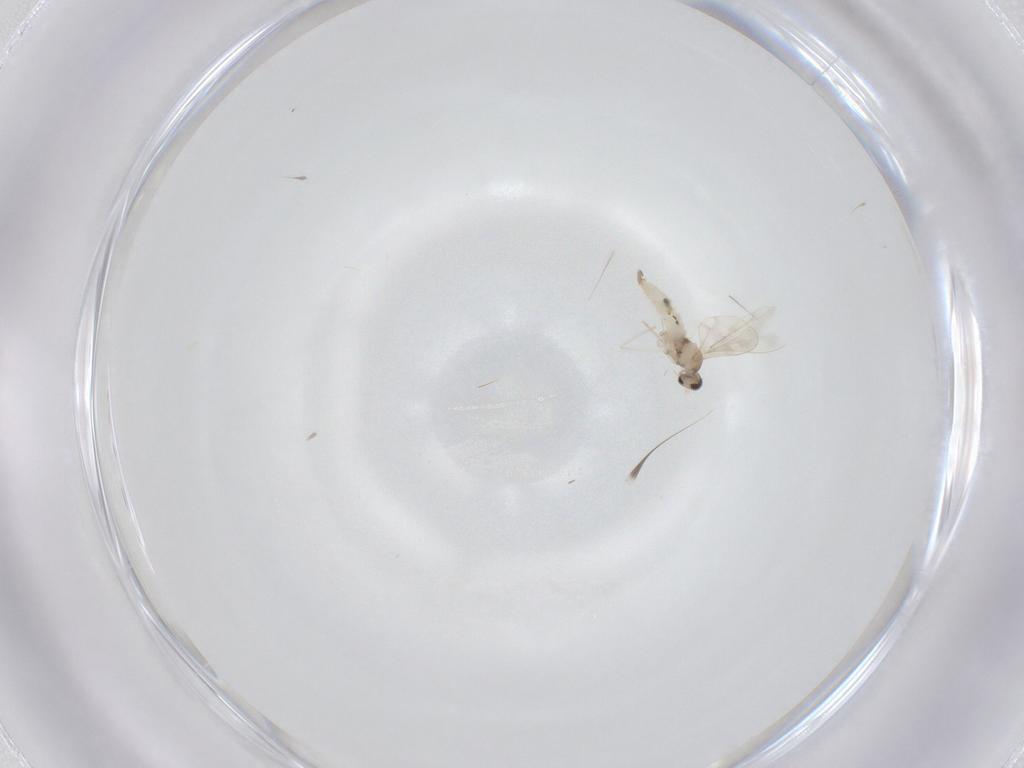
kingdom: Animalia
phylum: Arthropoda
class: Insecta
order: Diptera
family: Cecidomyiidae
